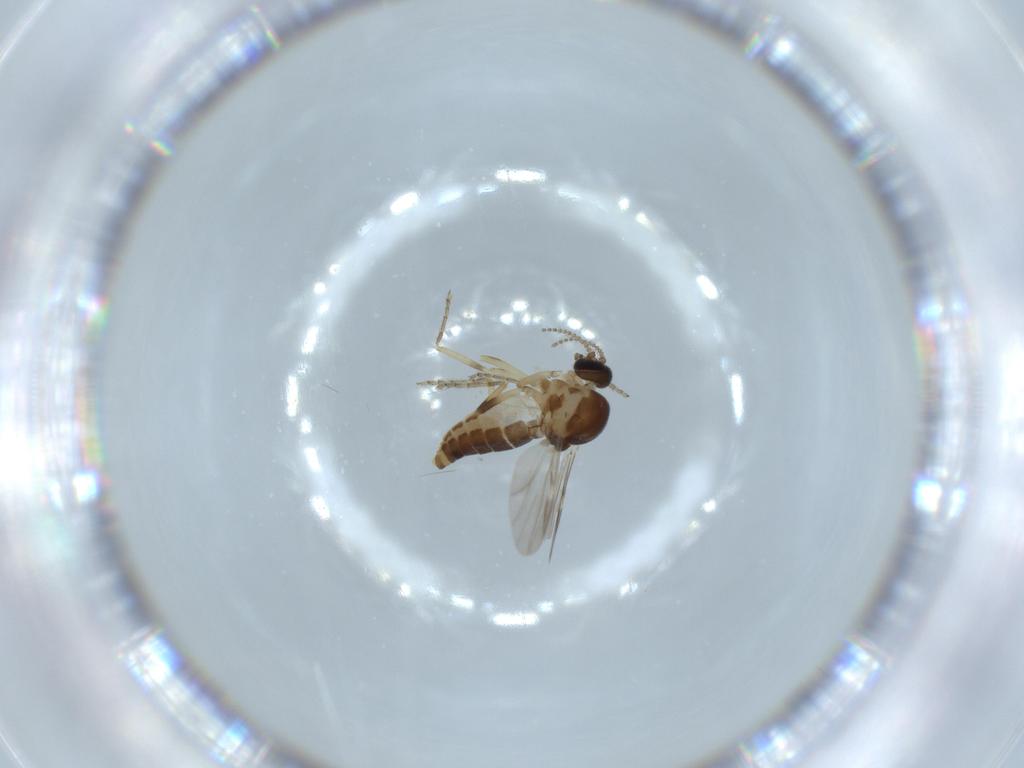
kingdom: Animalia
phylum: Arthropoda
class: Insecta
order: Diptera
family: Ceratopogonidae
